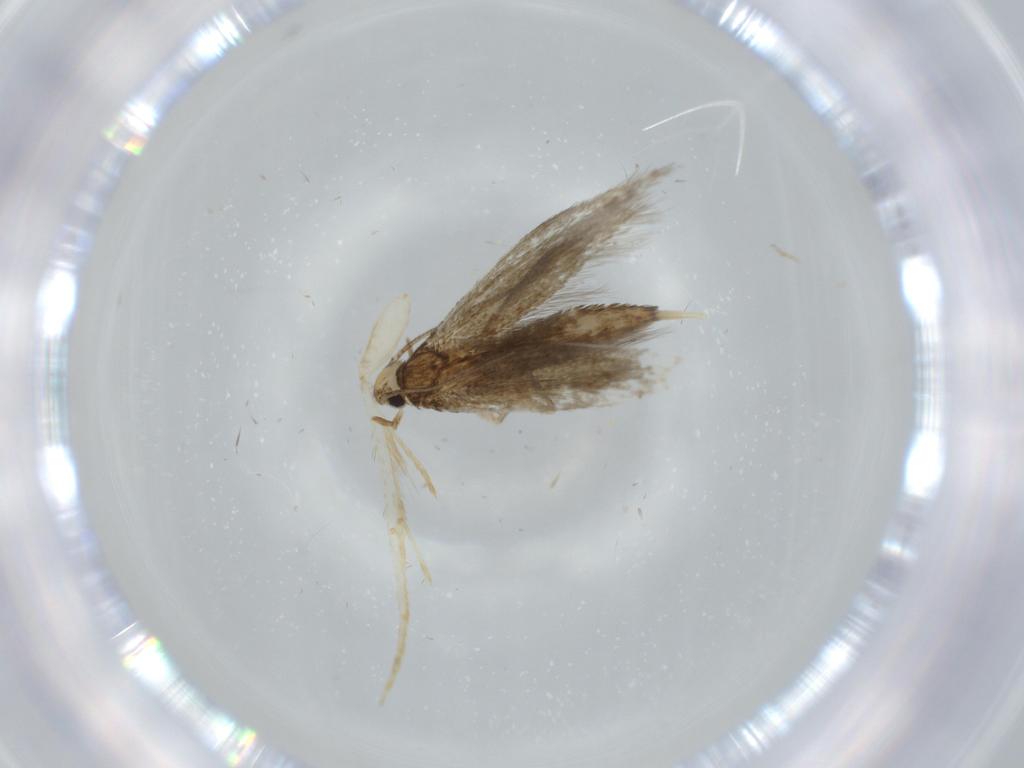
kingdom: Animalia
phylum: Arthropoda
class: Insecta
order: Lepidoptera
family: Tineidae
